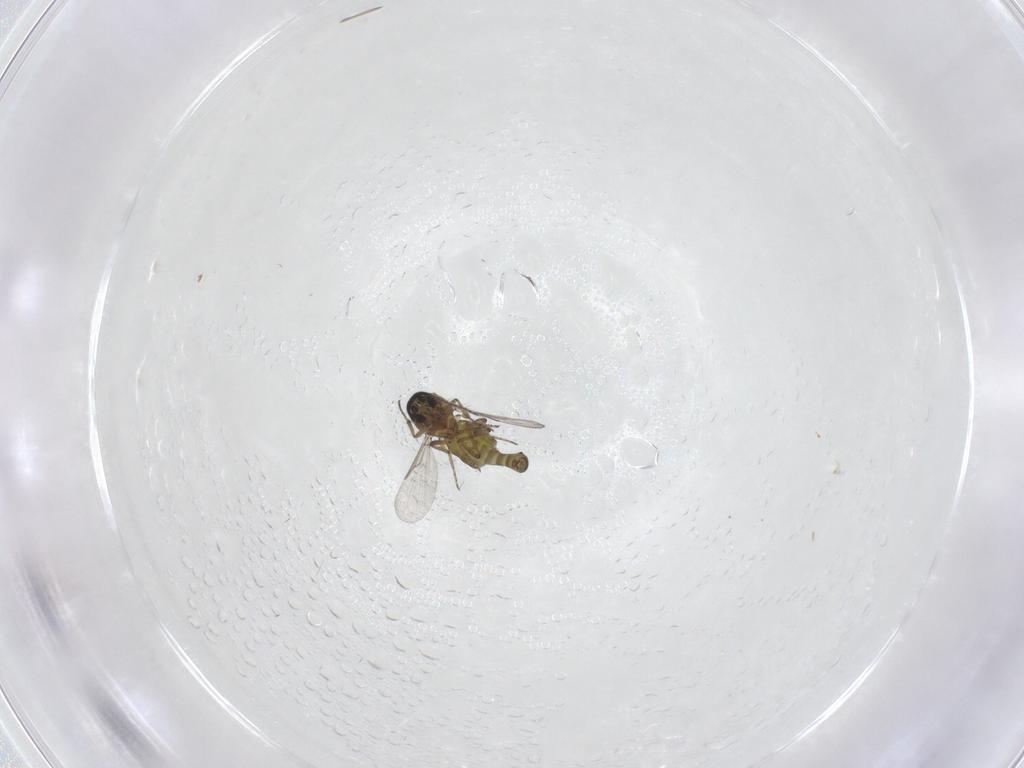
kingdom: Animalia
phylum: Arthropoda
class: Insecta
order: Diptera
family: Ceratopogonidae
